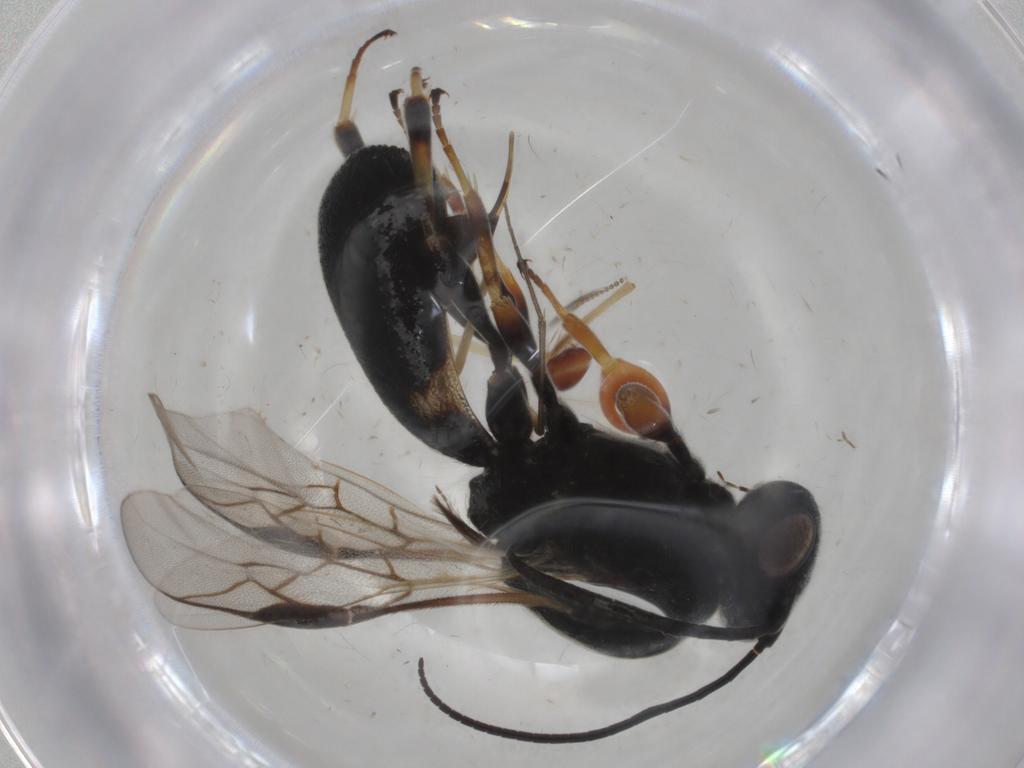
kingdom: Animalia
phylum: Arthropoda
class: Insecta
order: Hymenoptera
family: Braconidae
